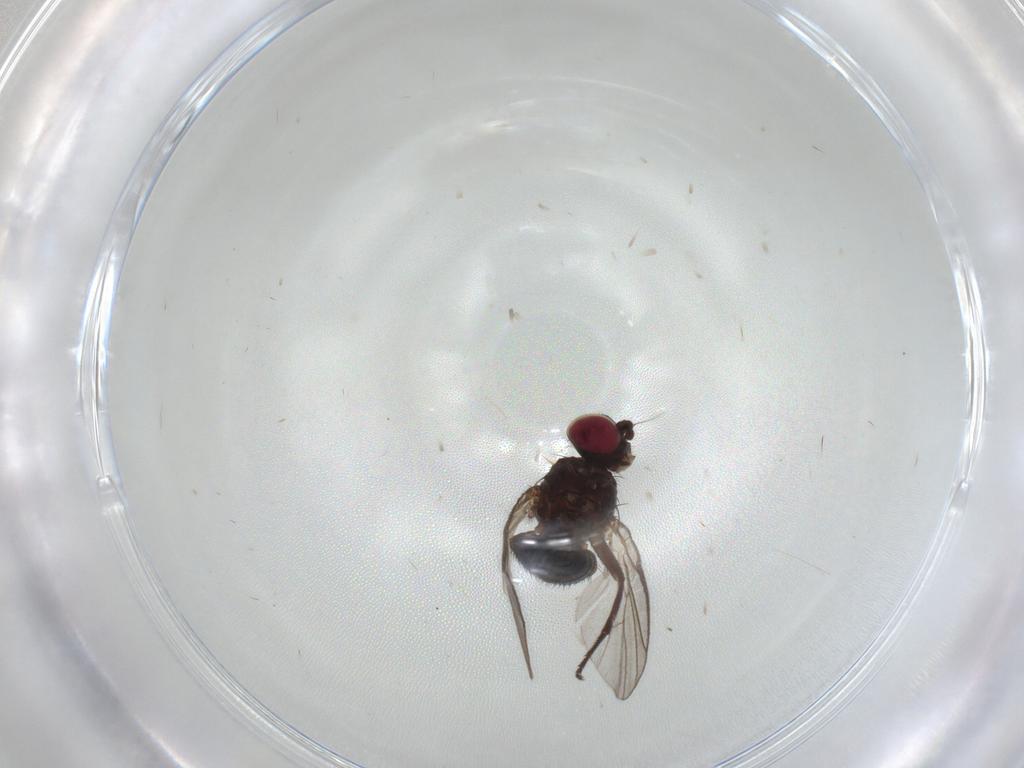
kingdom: Animalia
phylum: Arthropoda
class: Insecta
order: Diptera
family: Agromyzidae
